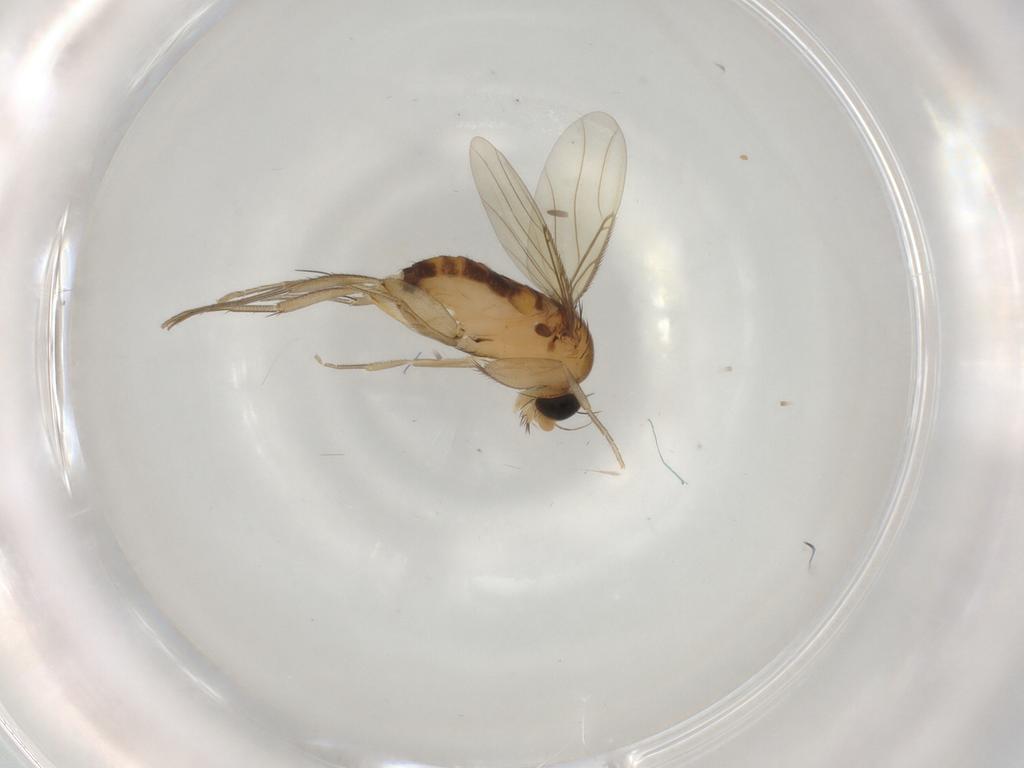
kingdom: Animalia
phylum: Arthropoda
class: Insecta
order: Diptera
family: Phoridae
